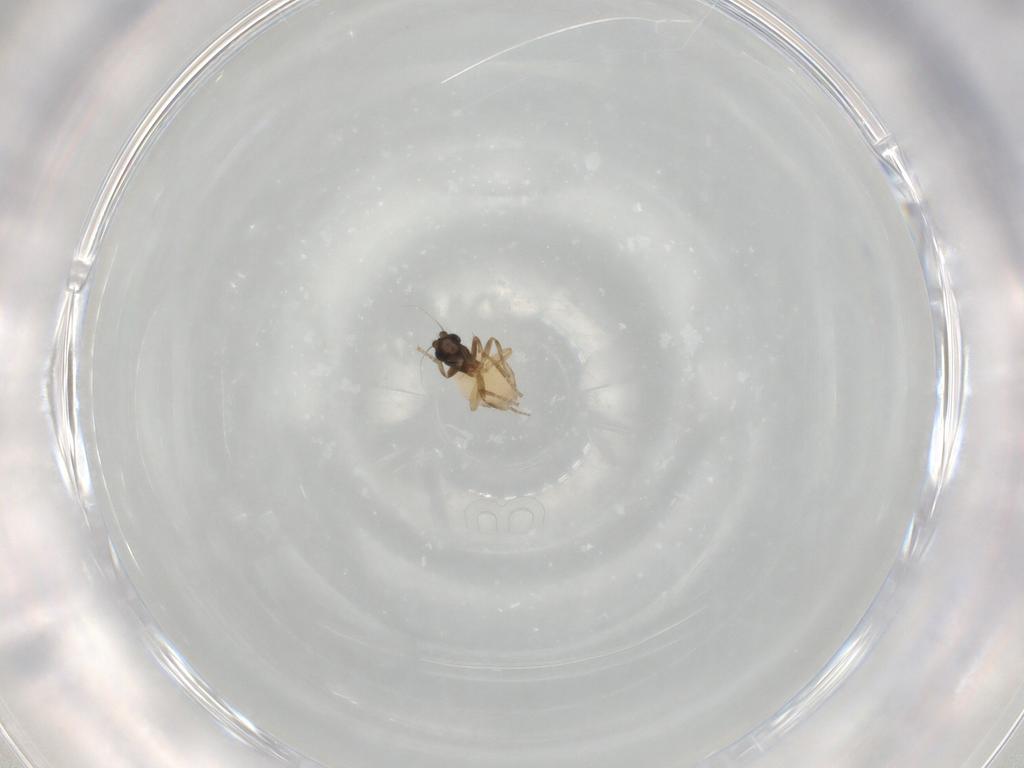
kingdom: Animalia
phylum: Arthropoda
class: Insecta
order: Diptera
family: Phoridae
